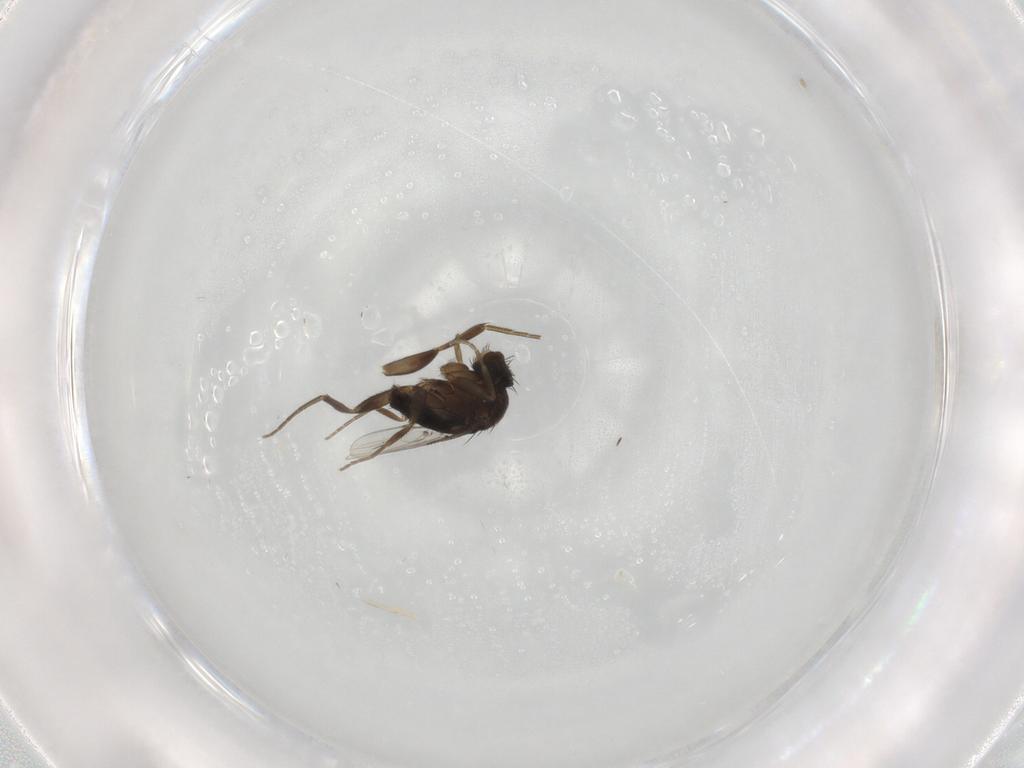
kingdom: Animalia
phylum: Arthropoda
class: Insecta
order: Diptera
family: Phoridae
